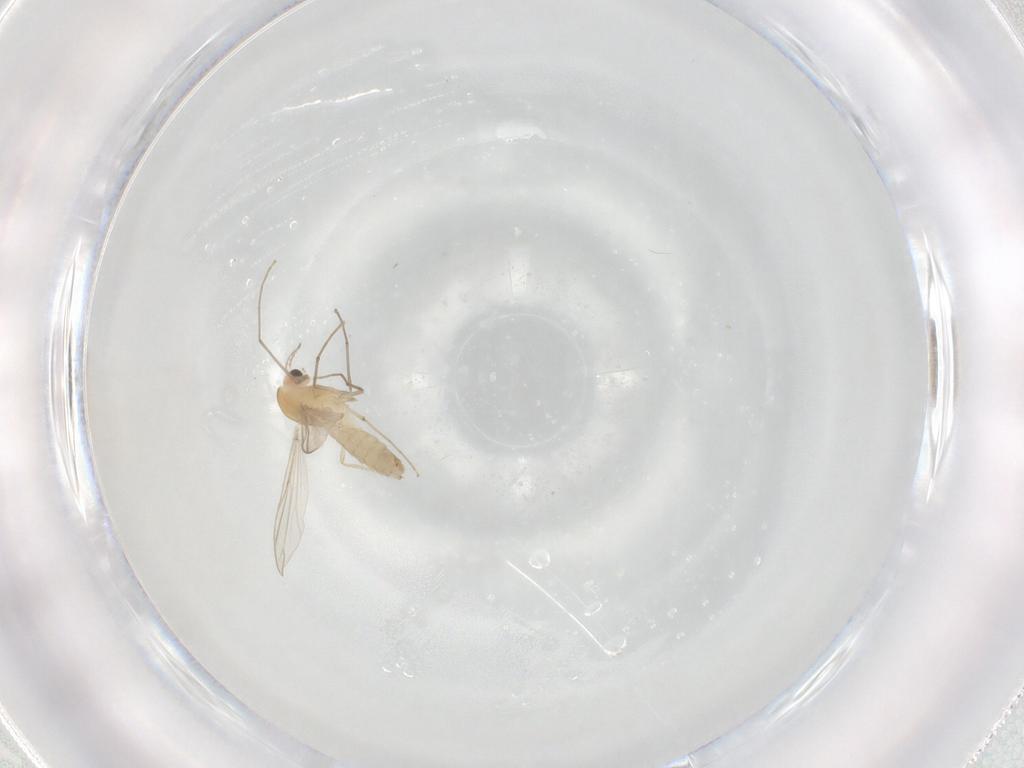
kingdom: Animalia
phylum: Arthropoda
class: Insecta
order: Diptera
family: Chironomidae
